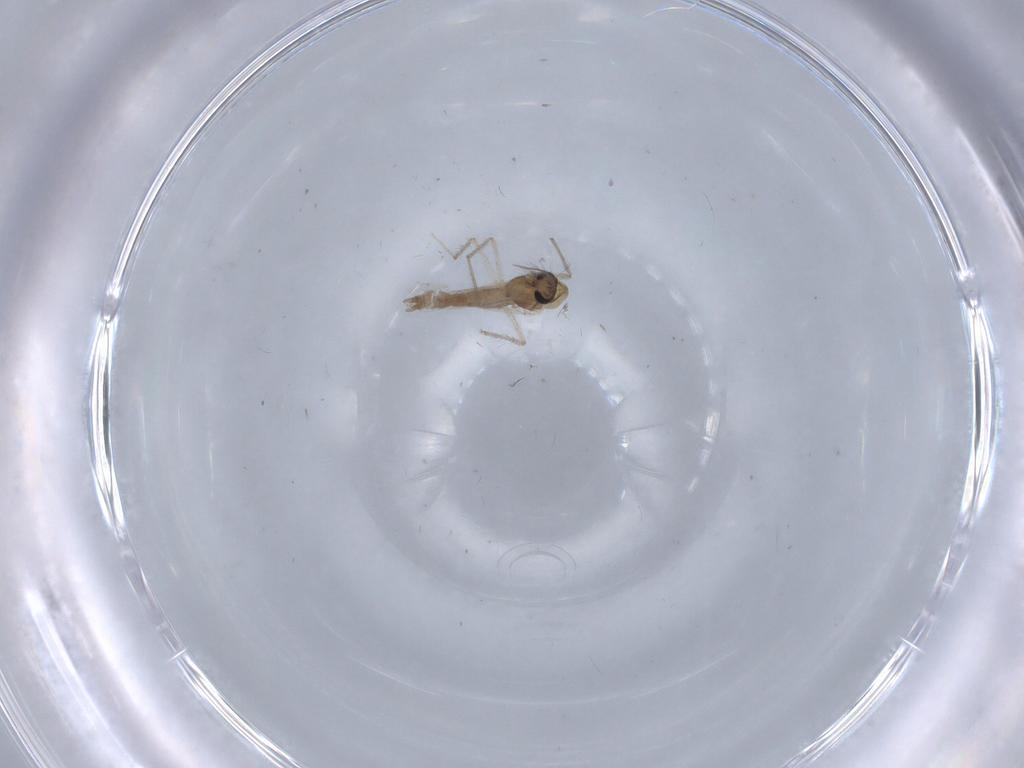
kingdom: Animalia
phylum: Arthropoda
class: Insecta
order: Diptera
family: Chironomidae
